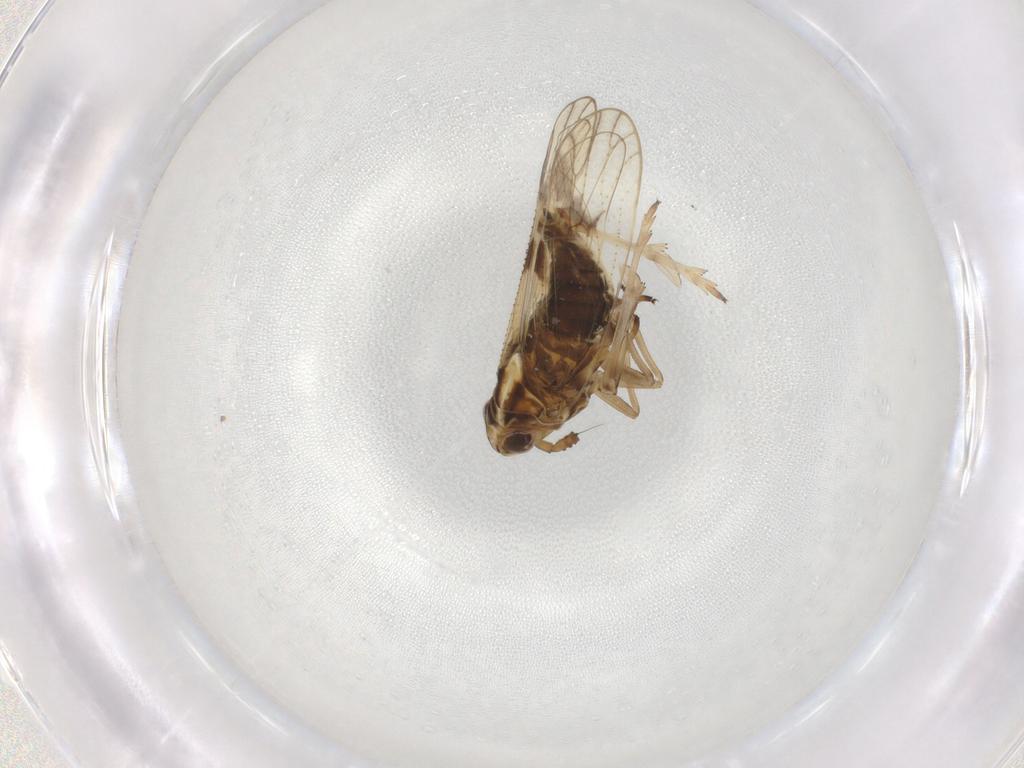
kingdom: Animalia
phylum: Arthropoda
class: Insecta
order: Hemiptera
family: Delphacidae
